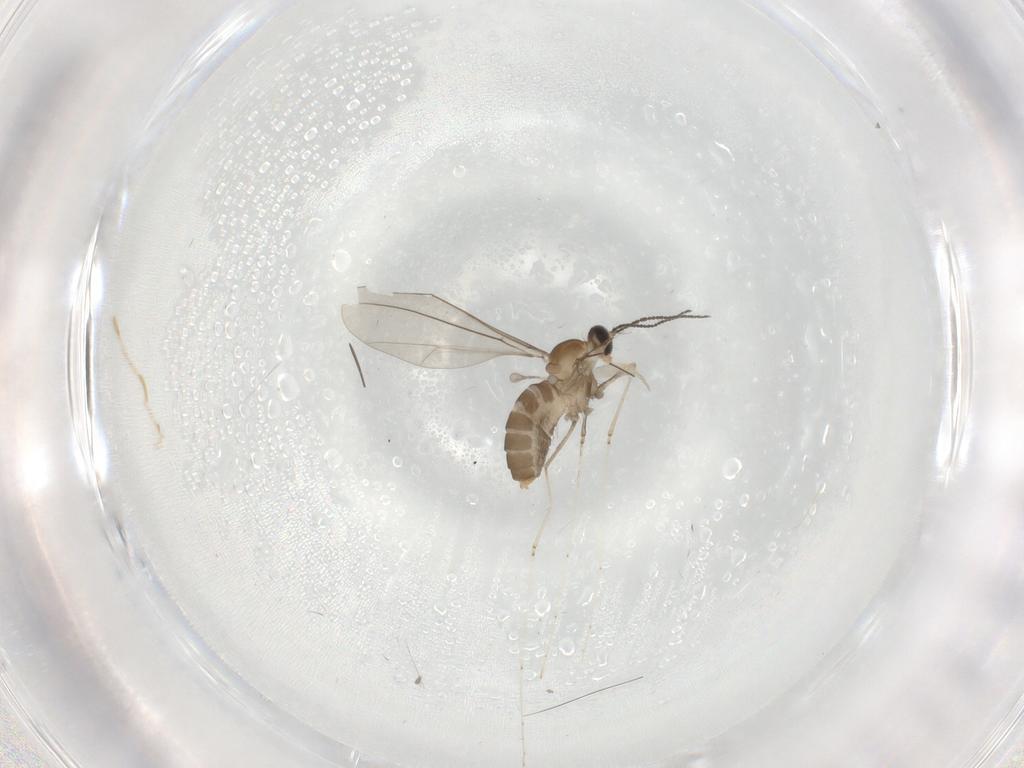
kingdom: Animalia
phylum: Arthropoda
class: Insecta
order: Diptera
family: Cecidomyiidae
